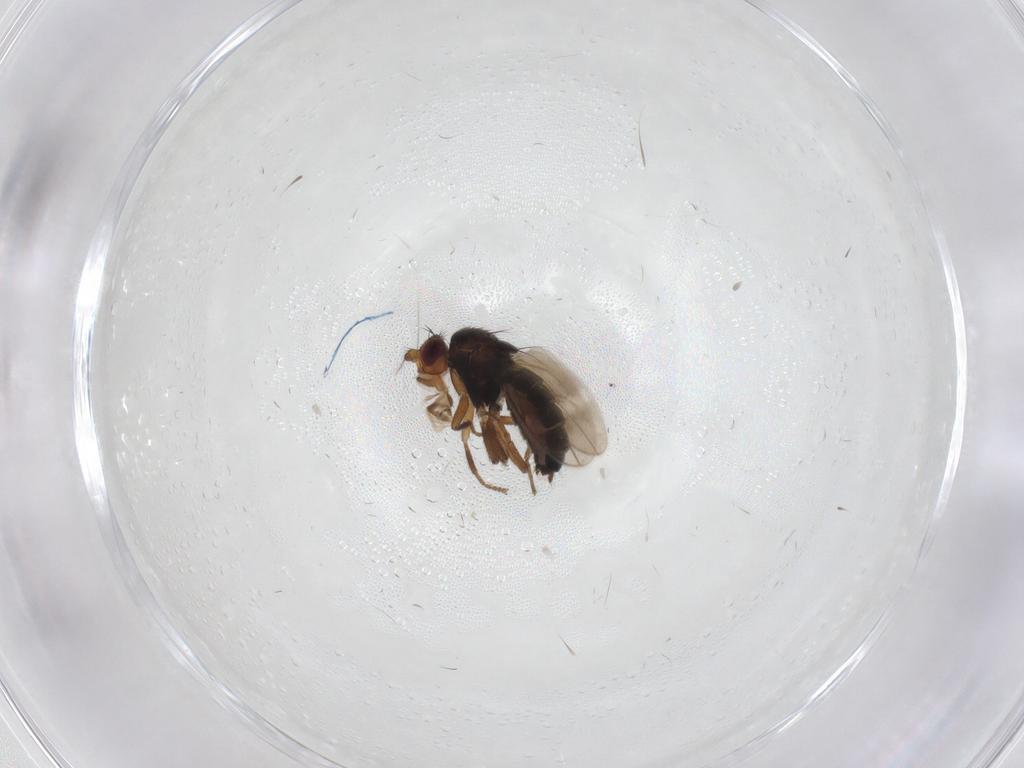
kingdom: Animalia
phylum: Arthropoda
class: Insecta
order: Diptera
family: Sphaeroceridae
